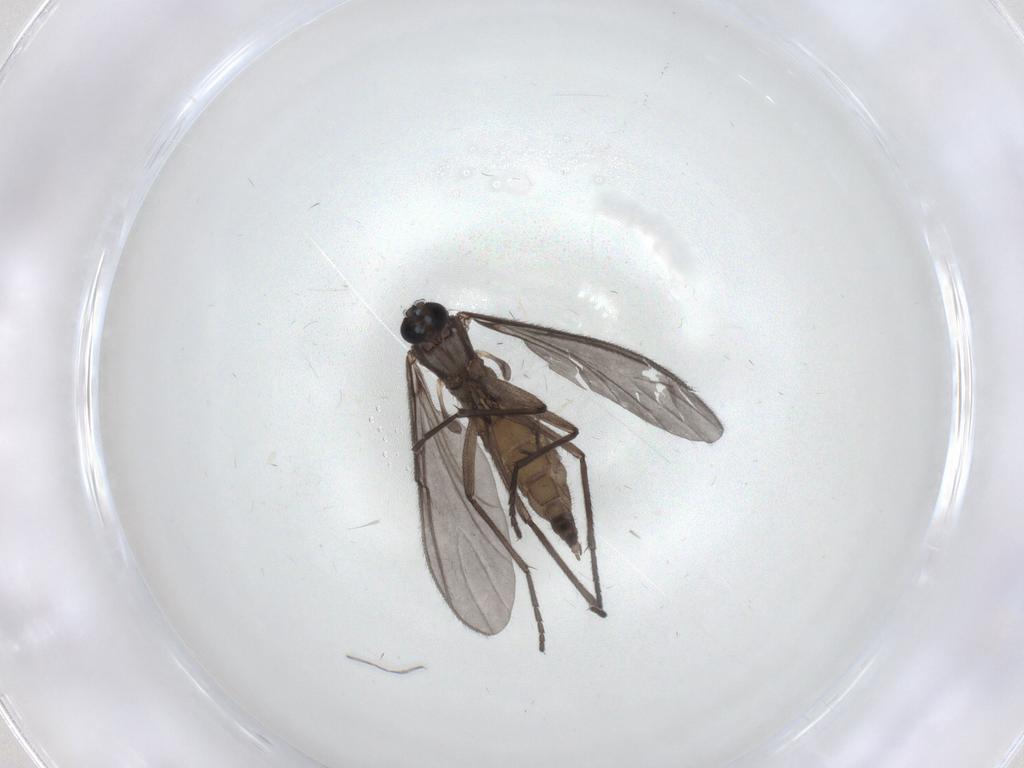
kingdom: Animalia
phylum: Arthropoda
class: Insecta
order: Diptera
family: Sciaridae
